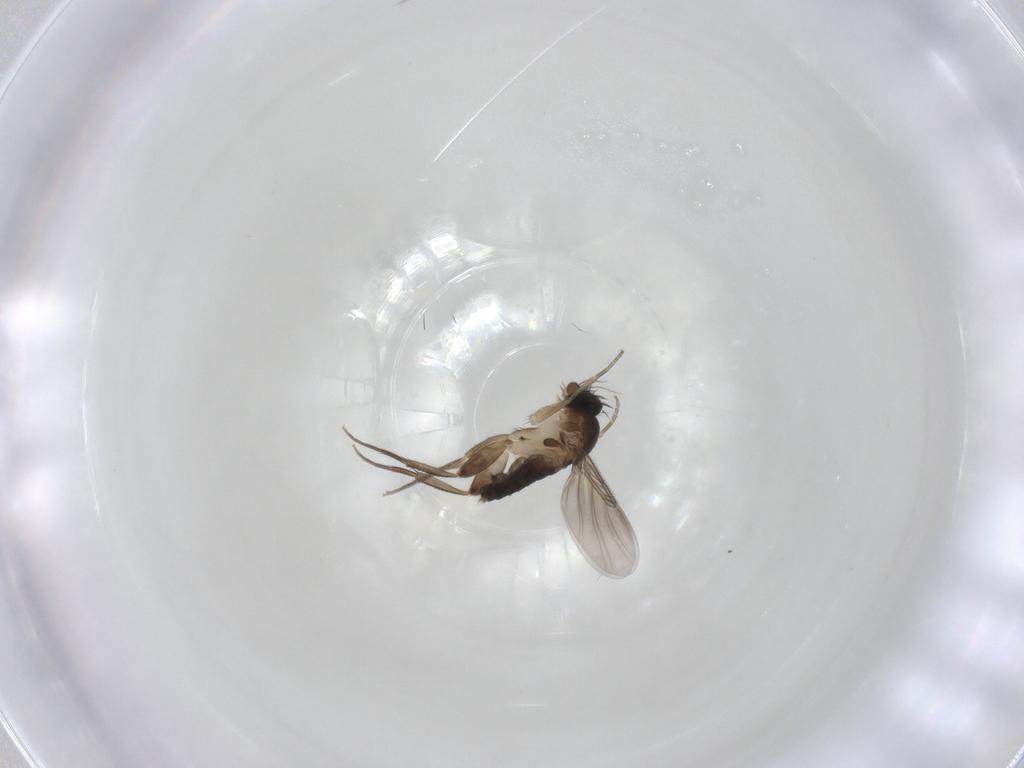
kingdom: Animalia
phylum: Arthropoda
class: Insecta
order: Diptera
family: Phoridae
